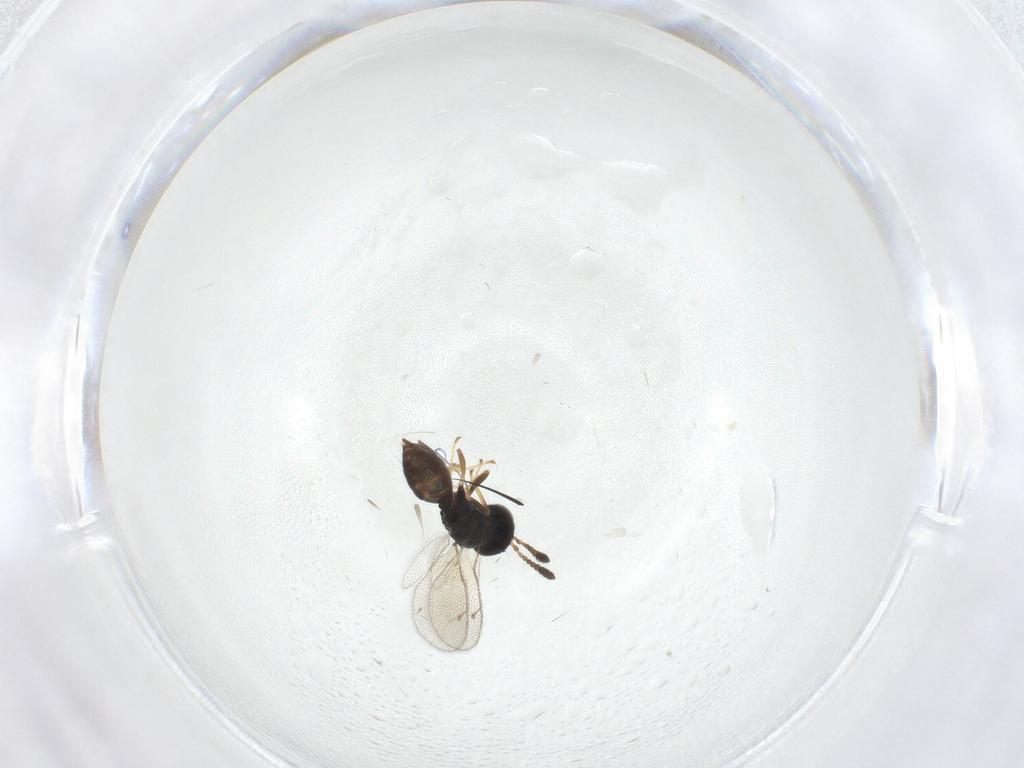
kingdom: Animalia
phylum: Arthropoda
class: Insecta
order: Hymenoptera
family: Pteromalidae
